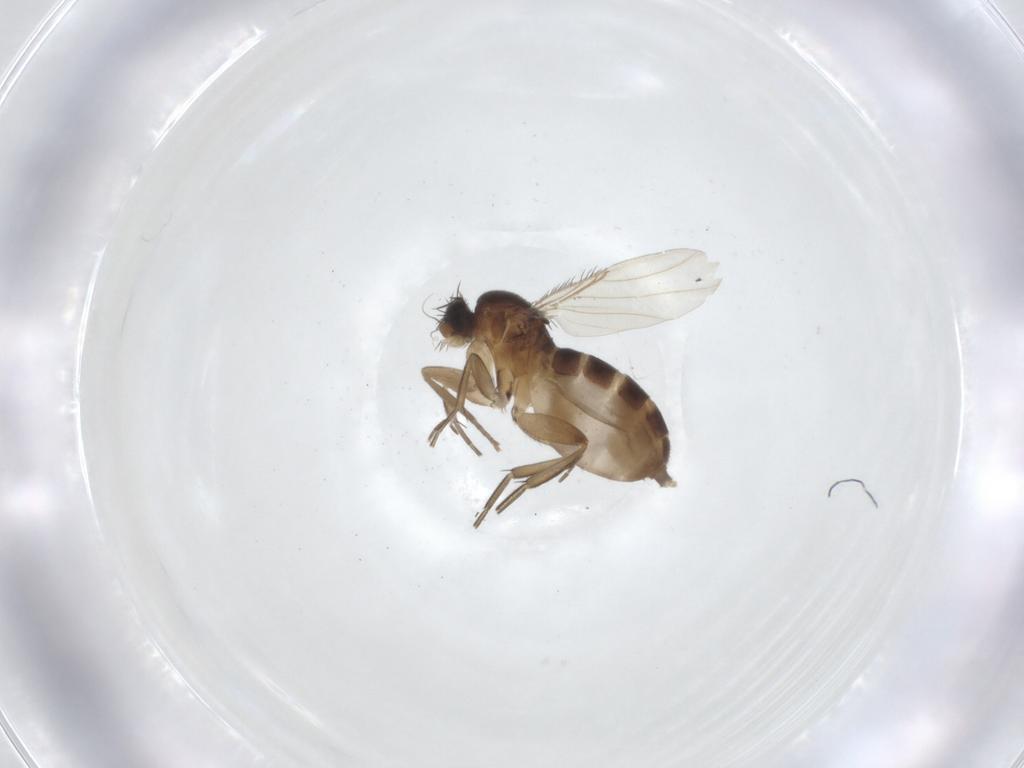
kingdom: Animalia
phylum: Arthropoda
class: Insecta
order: Diptera
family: Phoridae
